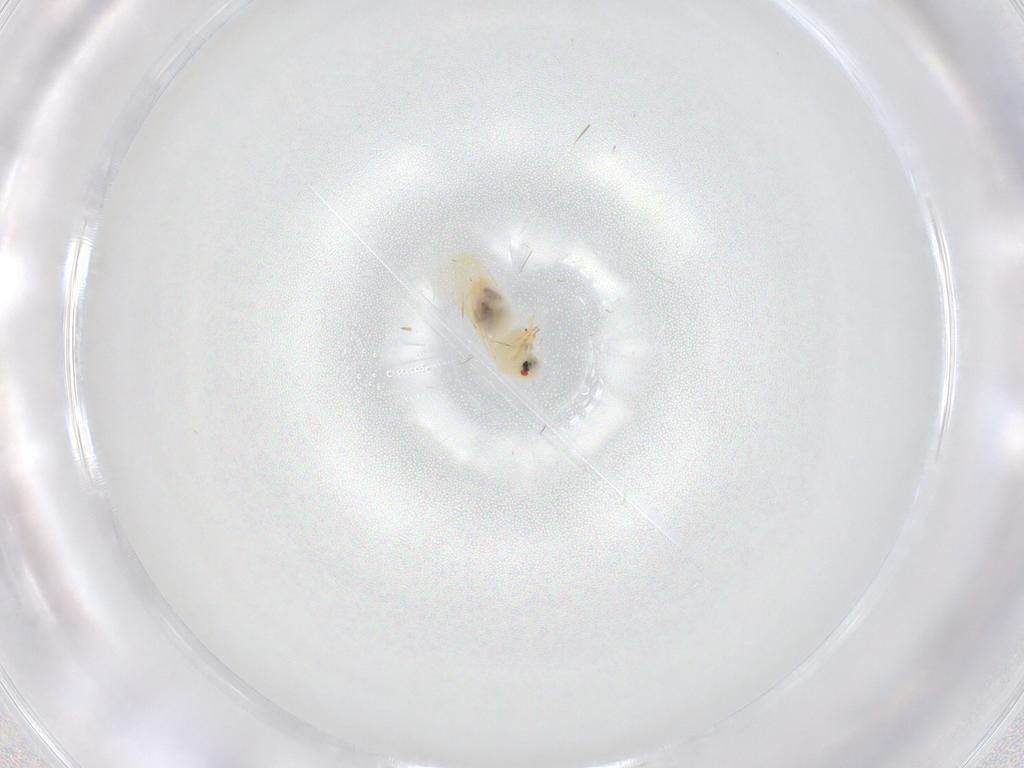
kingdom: Animalia
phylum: Arthropoda
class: Insecta
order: Hemiptera
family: Aleyrodidae
